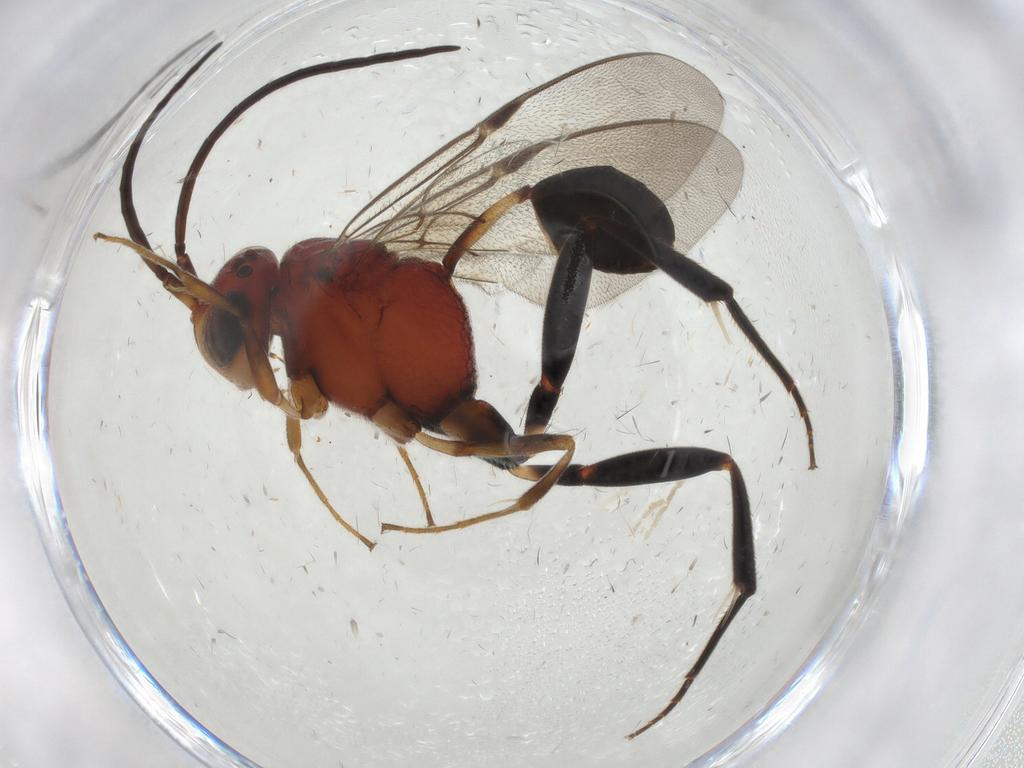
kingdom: Animalia
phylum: Arthropoda
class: Insecta
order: Hymenoptera
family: Evaniidae
